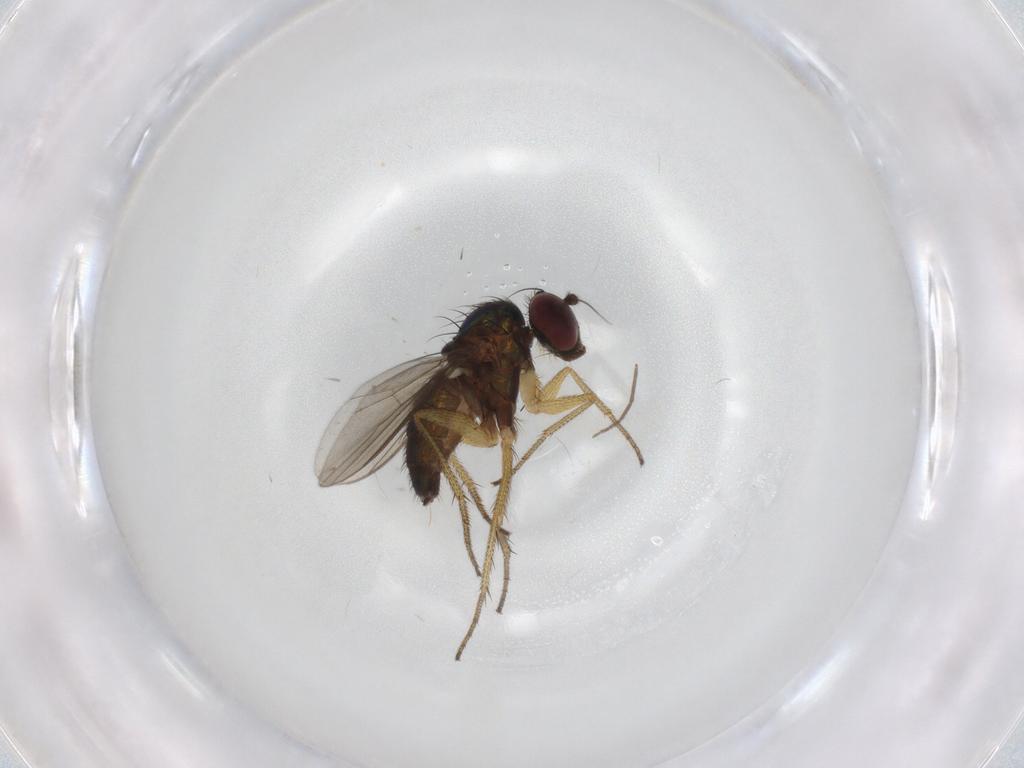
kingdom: Animalia
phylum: Arthropoda
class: Insecta
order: Diptera
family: Dolichopodidae
